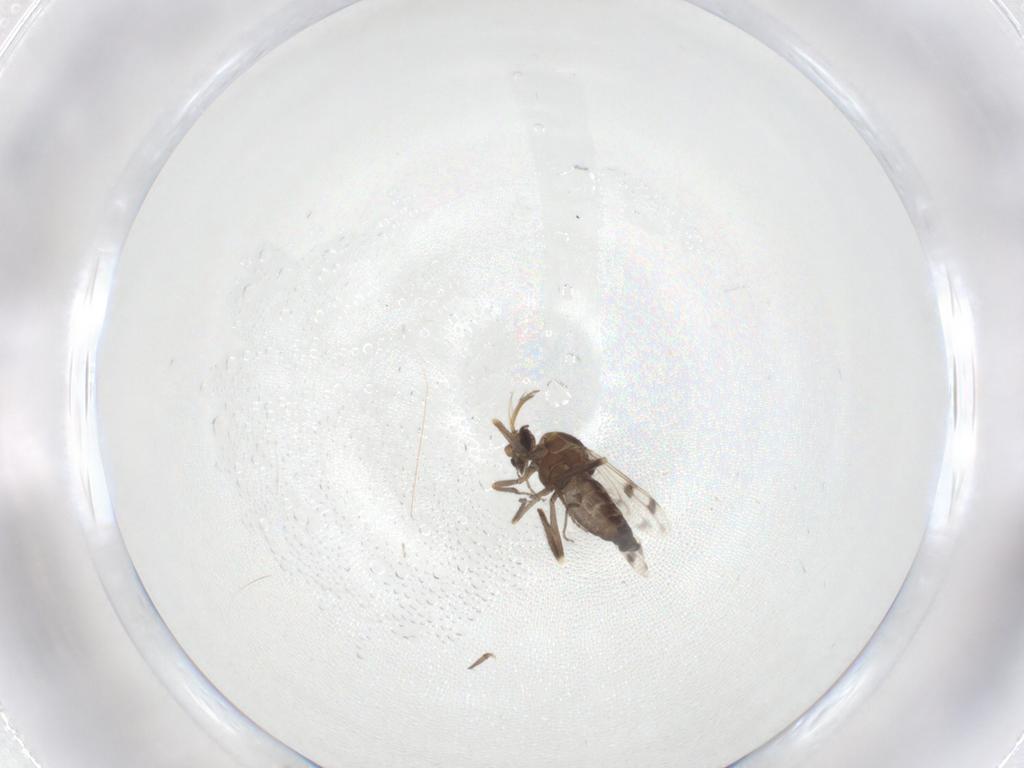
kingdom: Animalia
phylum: Arthropoda
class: Insecta
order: Diptera
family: Ceratopogonidae
